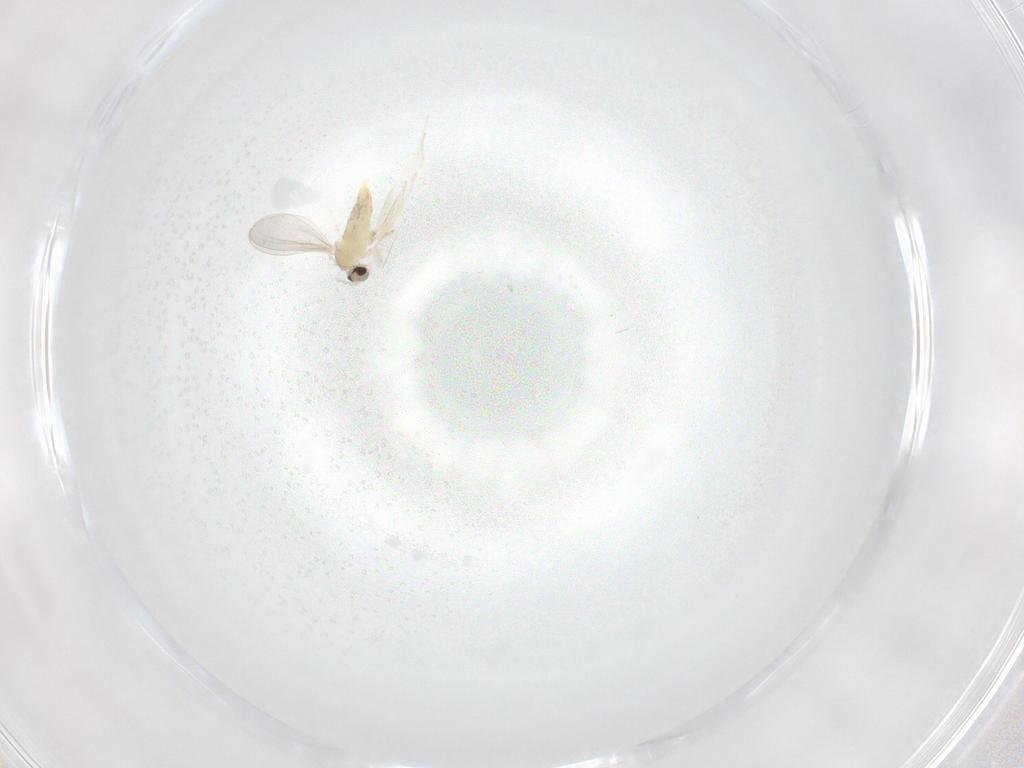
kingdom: Animalia
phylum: Arthropoda
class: Insecta
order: Diptera
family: Cecidomyiidae
